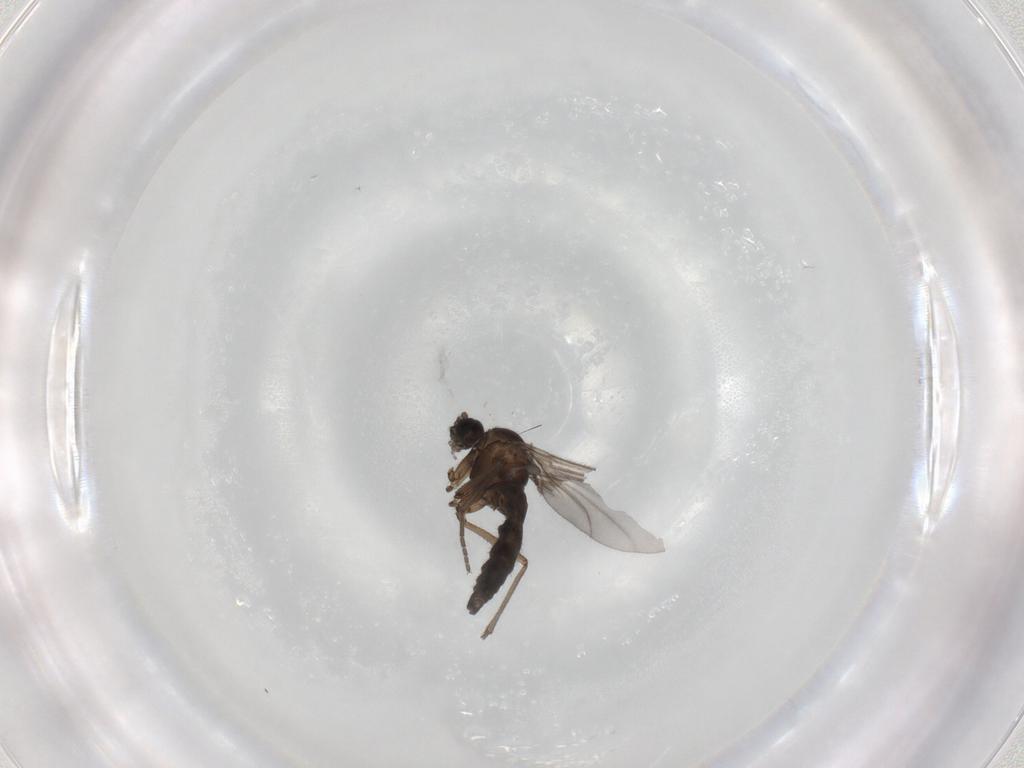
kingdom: Animalia
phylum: Arthropoda
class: Insecta
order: Diptera
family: Sciaridae
